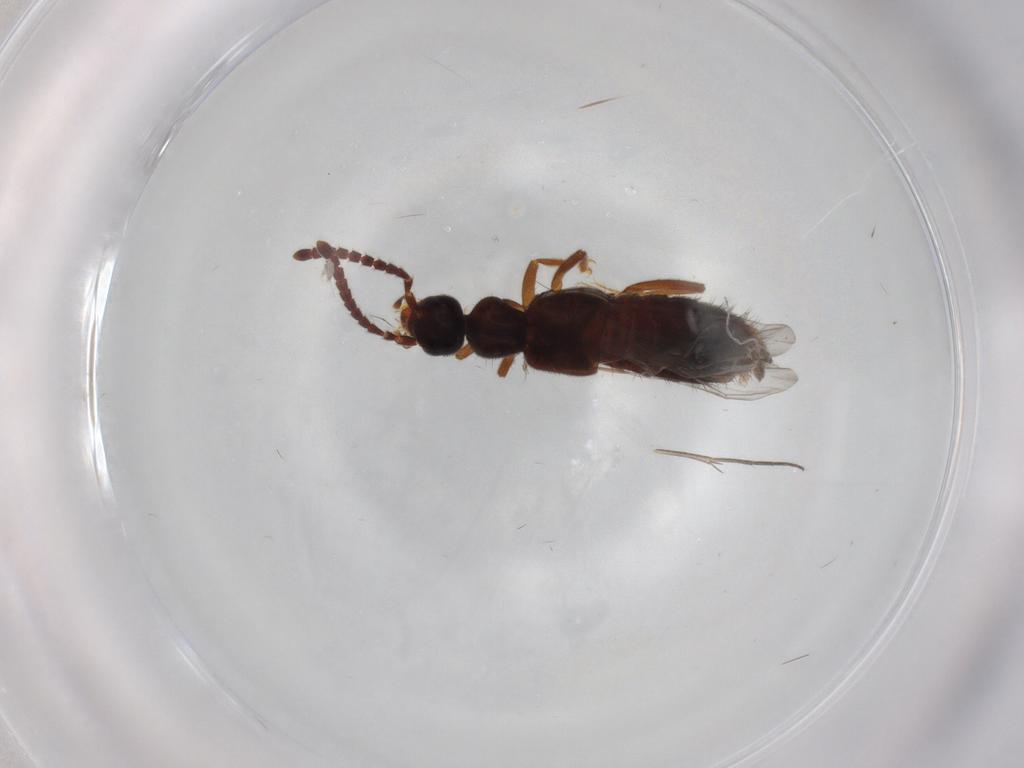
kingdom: Animalia
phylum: Arthropoda
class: Insecta
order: Coleoptera
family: Staphylinidae
